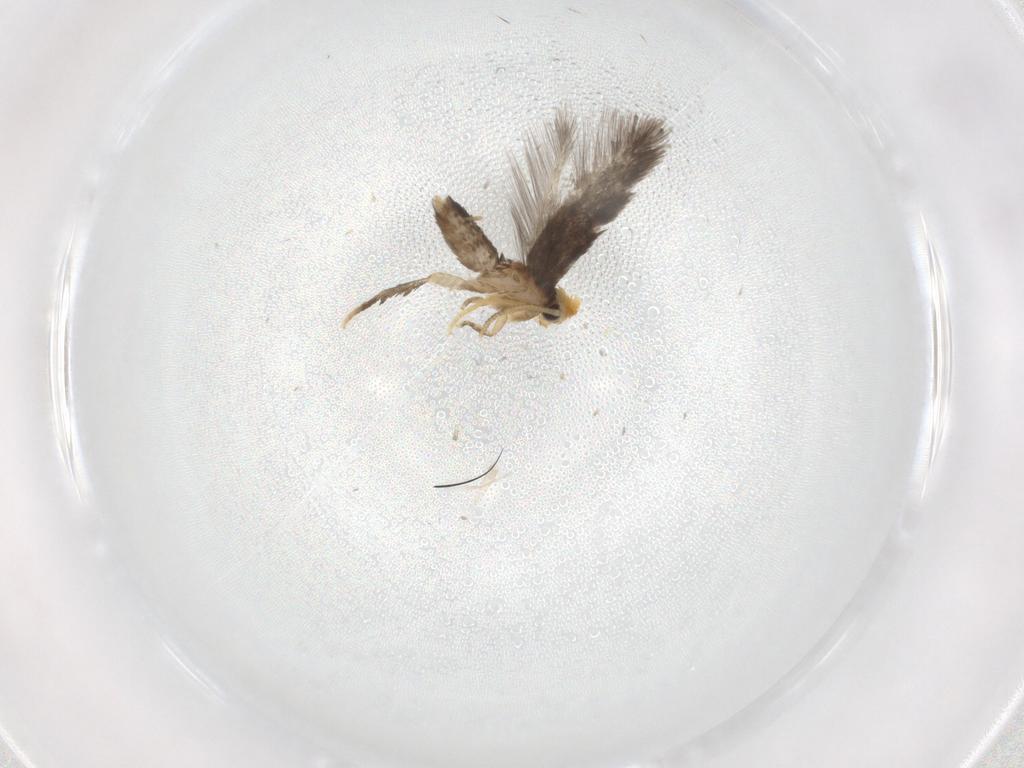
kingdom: Animalia
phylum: Arthropoda
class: Insecta
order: Lepidoptera
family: Nepticulidae
